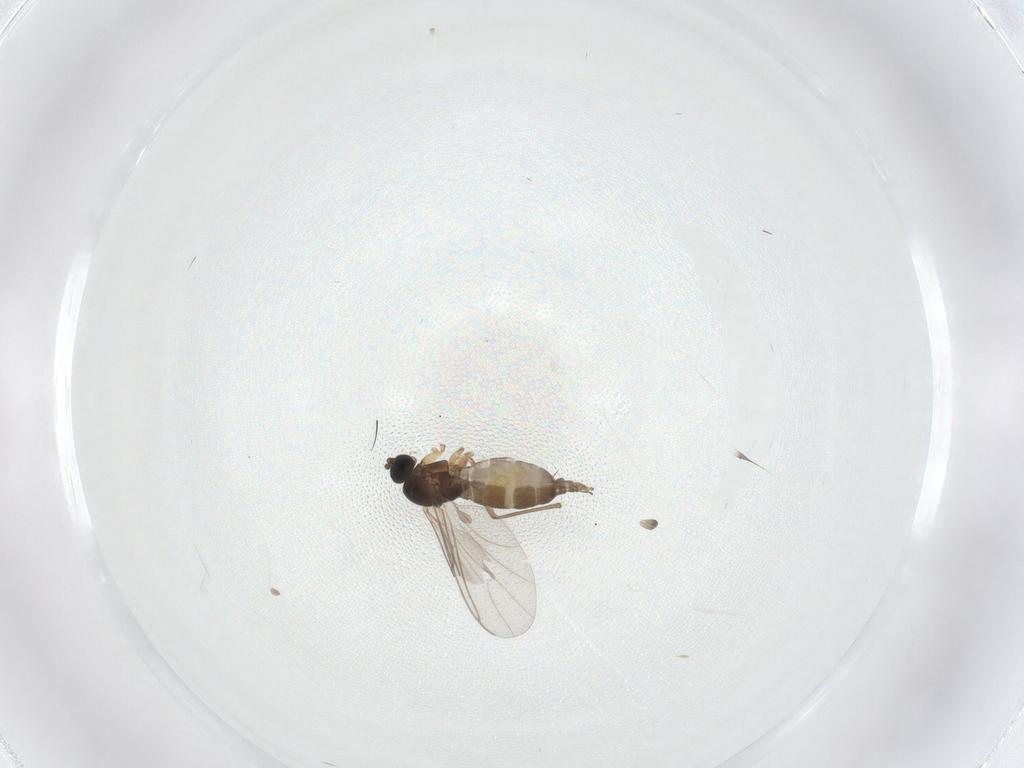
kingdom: Animalia
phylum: Arthropoda
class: Insecta
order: Diptera
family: Sciaridae
